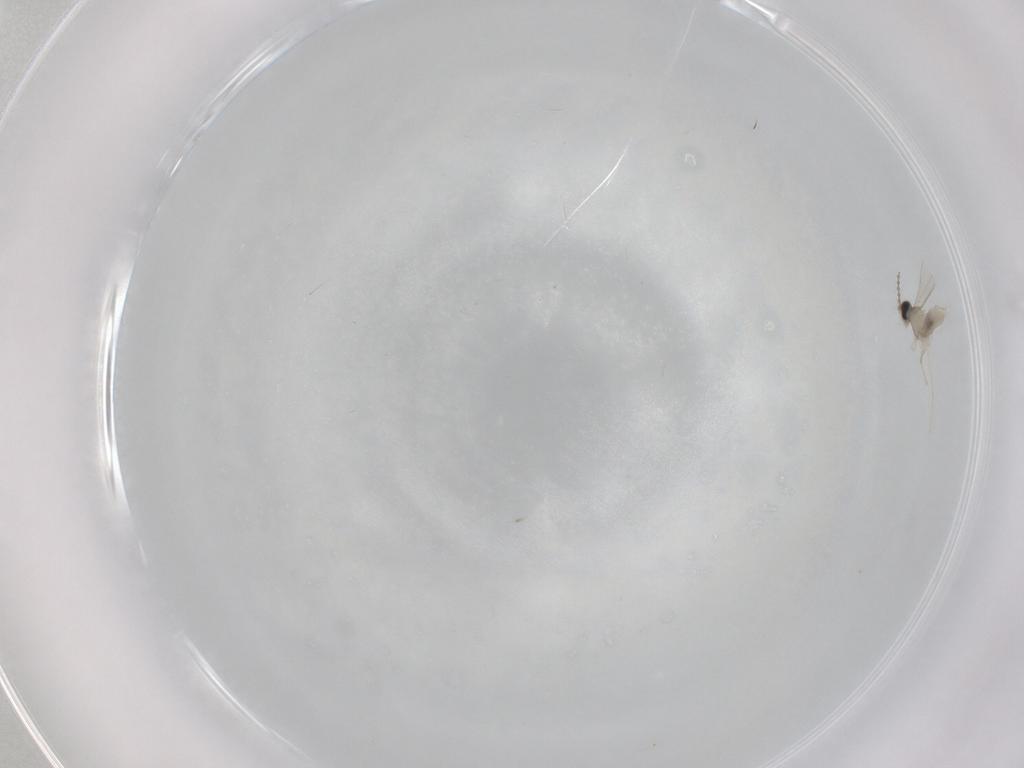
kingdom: Animalia
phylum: Arthropoda
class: Insecta
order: Diptera
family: Cecidomyiidae
